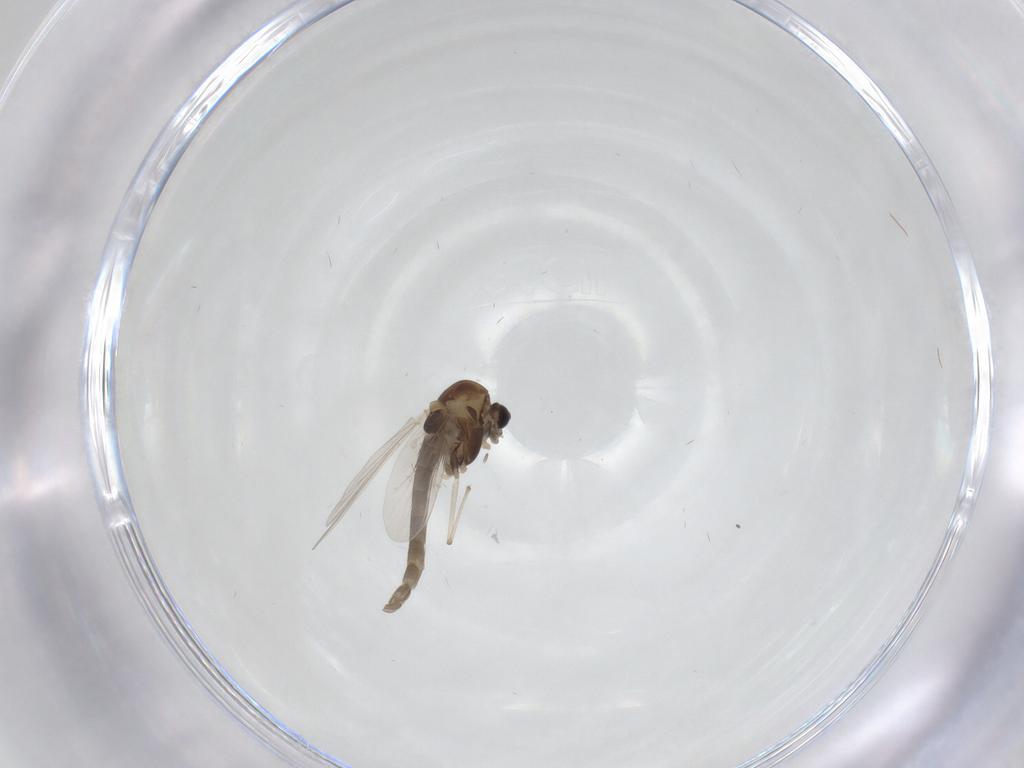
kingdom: Animalia
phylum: Arthropoda
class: Insecta
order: Diptera
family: Chironomidae
